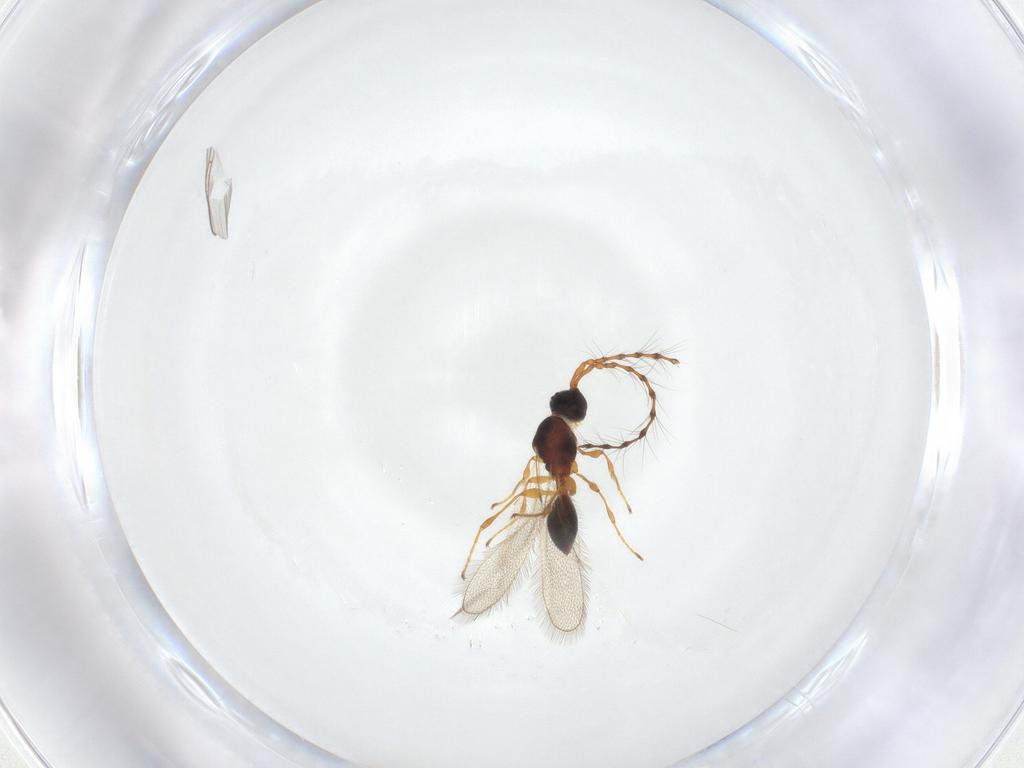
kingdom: Animalia
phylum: Arthropoda
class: Insecta
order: Hymenoptera
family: Diapriidae
